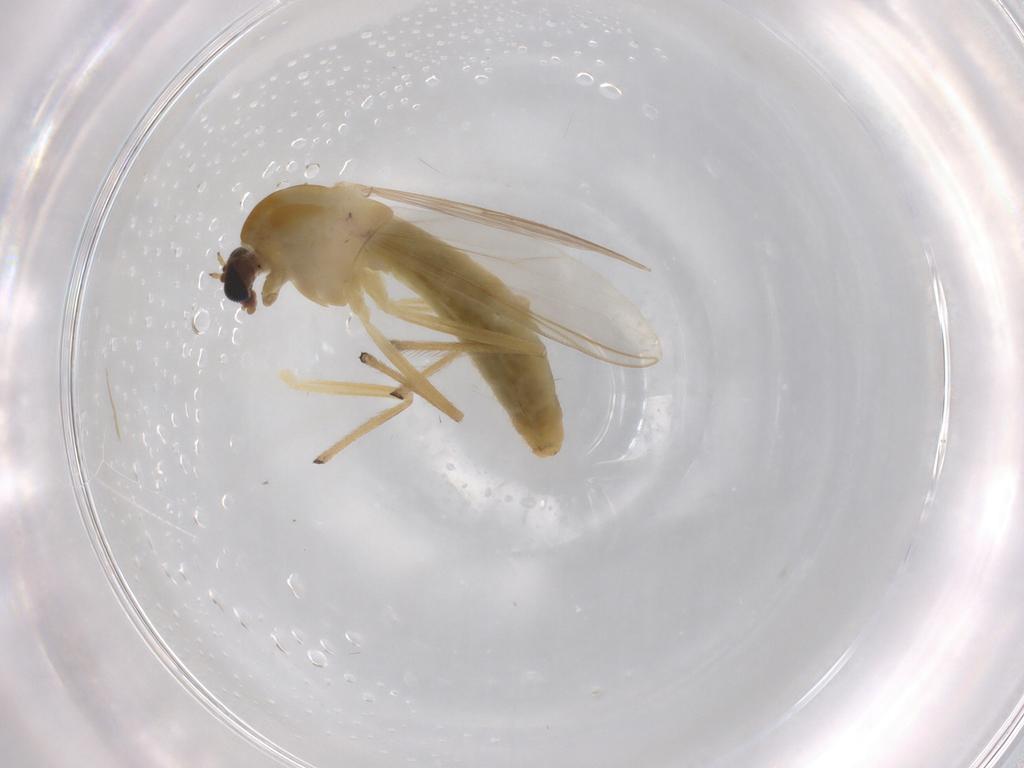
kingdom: Animalia
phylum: Arthropoda
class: Insecta
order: Diptera
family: Chironomidae
